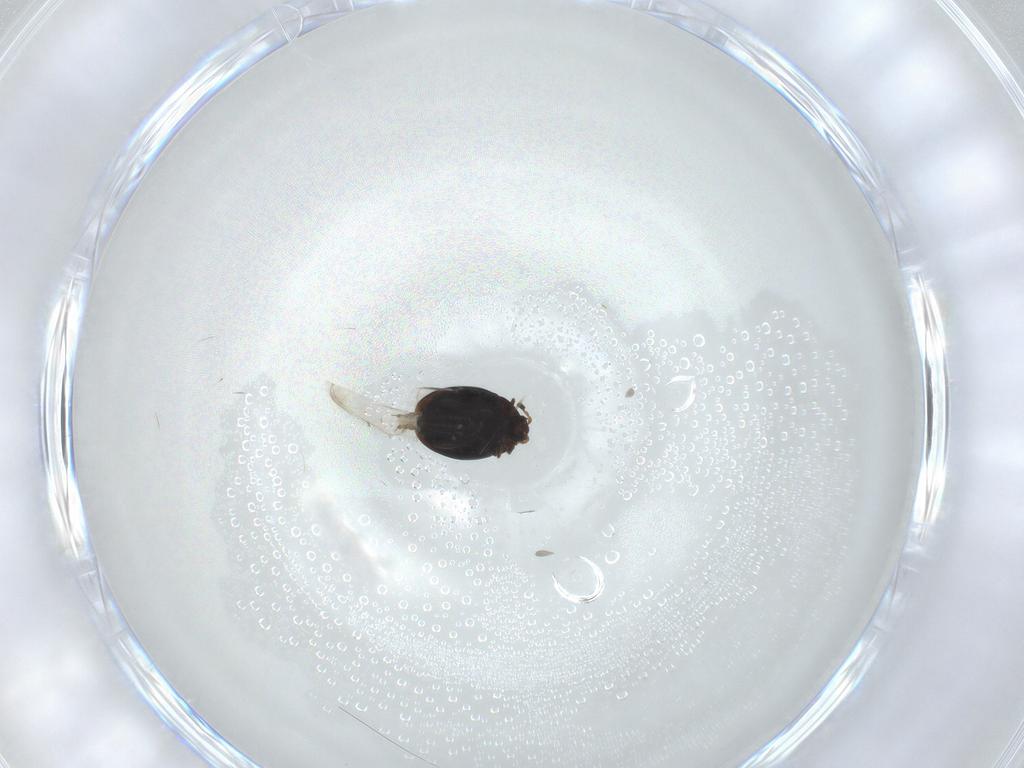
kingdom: Animalia
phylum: Arthropoda
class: Insecta
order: Coleoptera
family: Corylophidae
